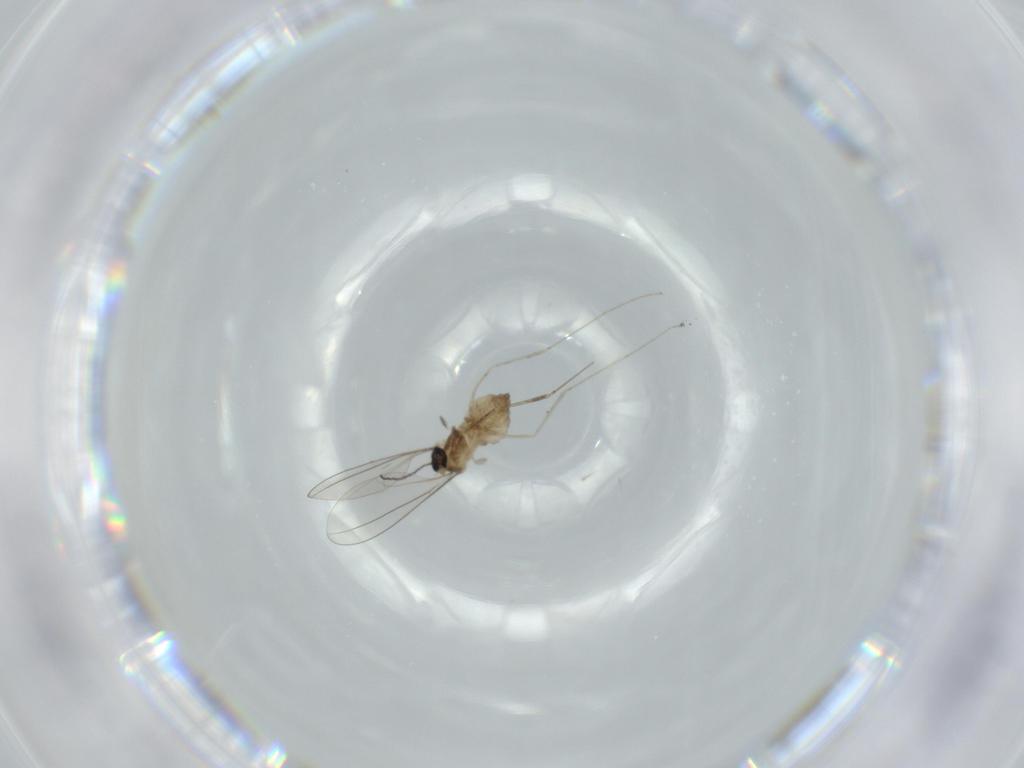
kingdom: Animalia
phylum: Arthropoda
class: Insecta
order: Diptera
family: Cecidomyiidae
